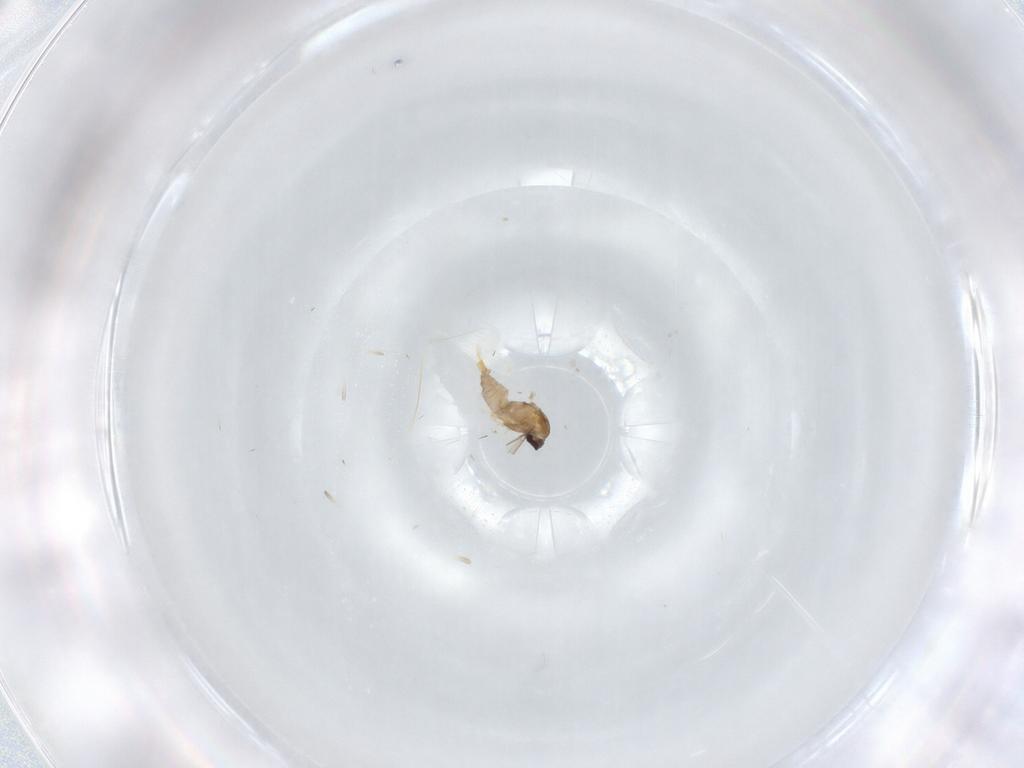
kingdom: Animalia
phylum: Arthropoda
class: Insecta
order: Diptera
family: Cecidomyiidae
